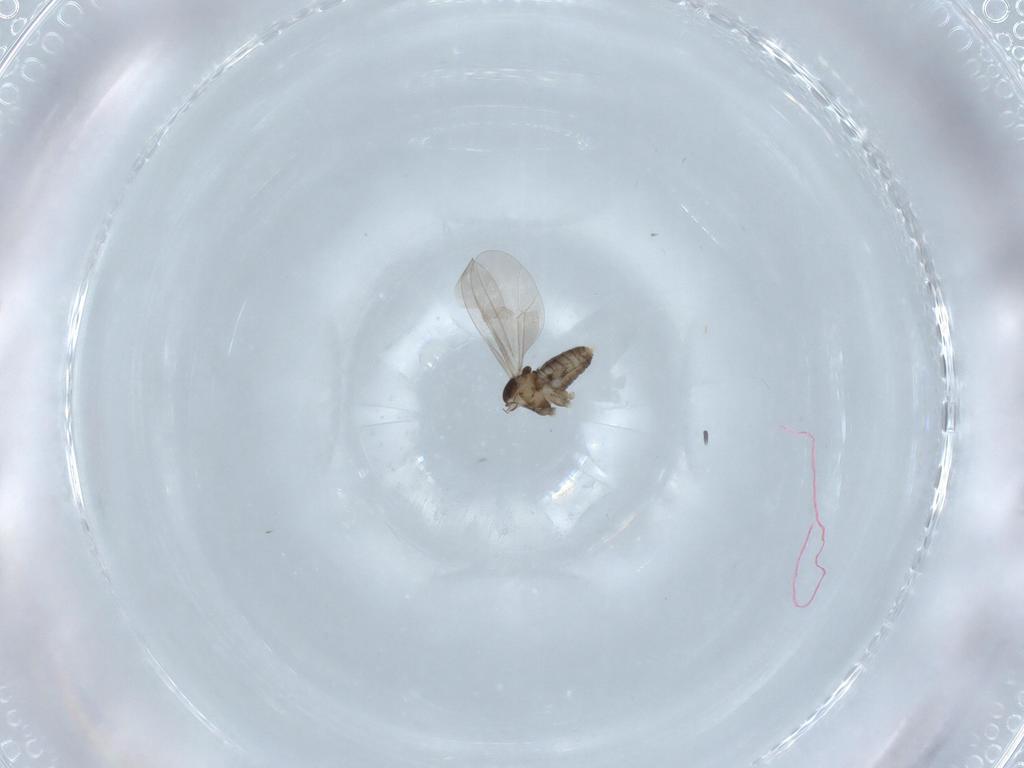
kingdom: Animalia
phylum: Arthropoda
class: Insecta
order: Diptera
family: Cecidomyiidae
